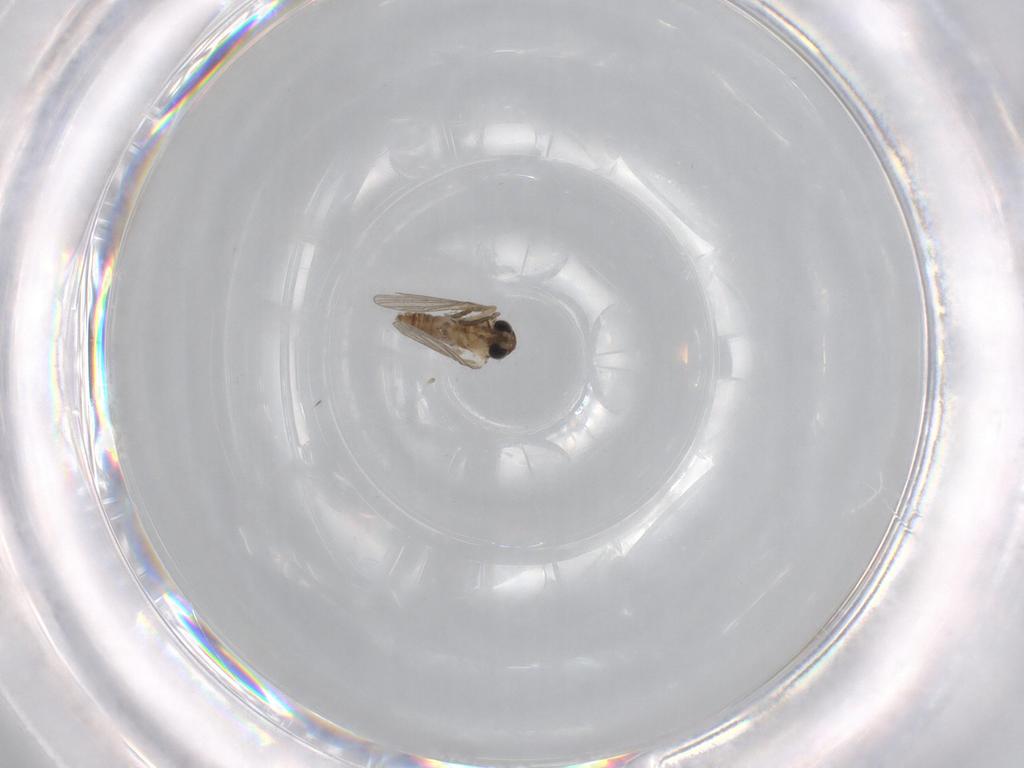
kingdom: Animalia
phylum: Arthropoda
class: Insecta
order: Diptera
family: Psychodidae
